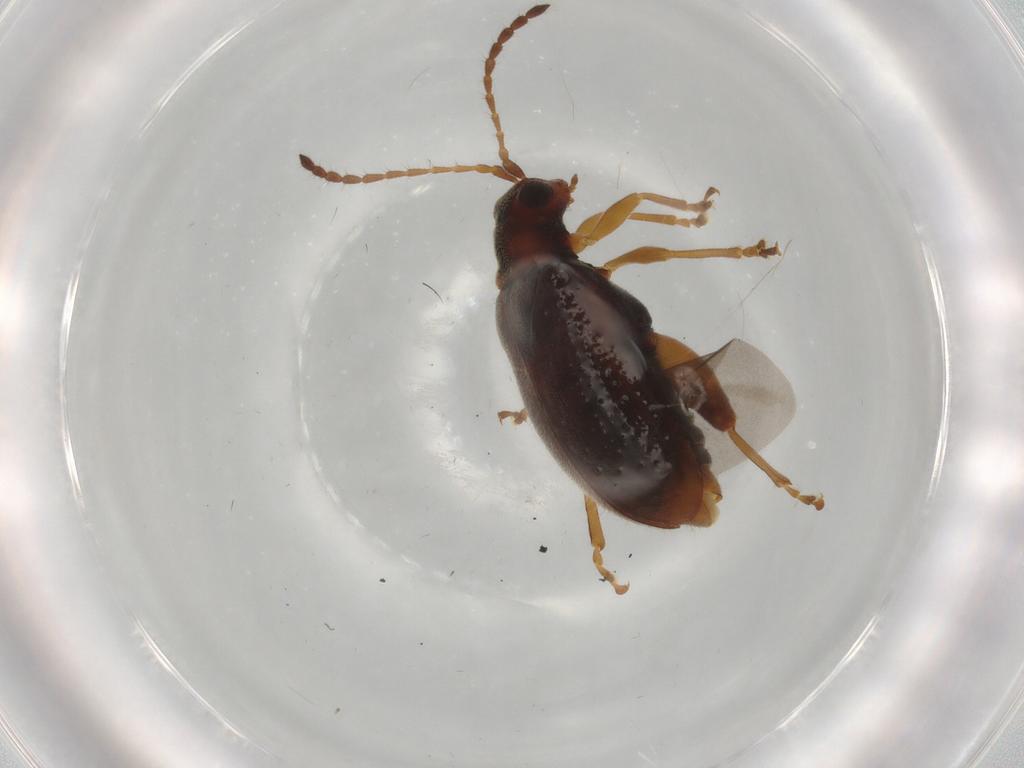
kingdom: Animalia
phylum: Arthropoda
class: Insecta
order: Coleoptera
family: Chrysomelidae
